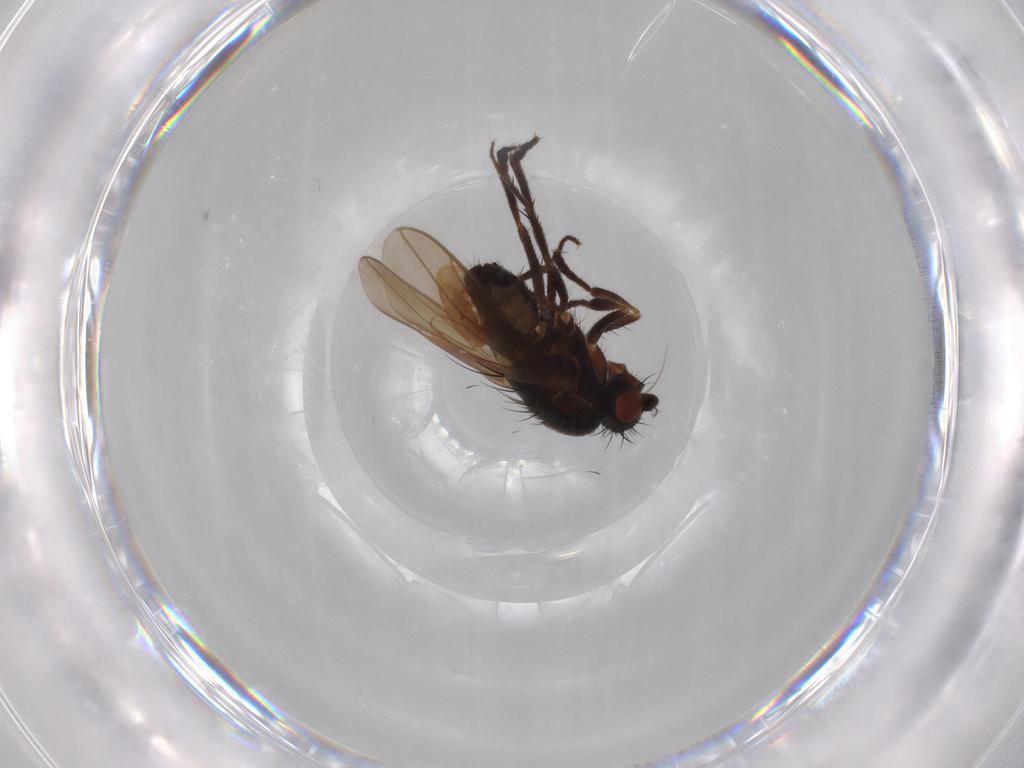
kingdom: Animalia
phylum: Arthropoda
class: Insecta
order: Diptera
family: Sphaeroceridae
